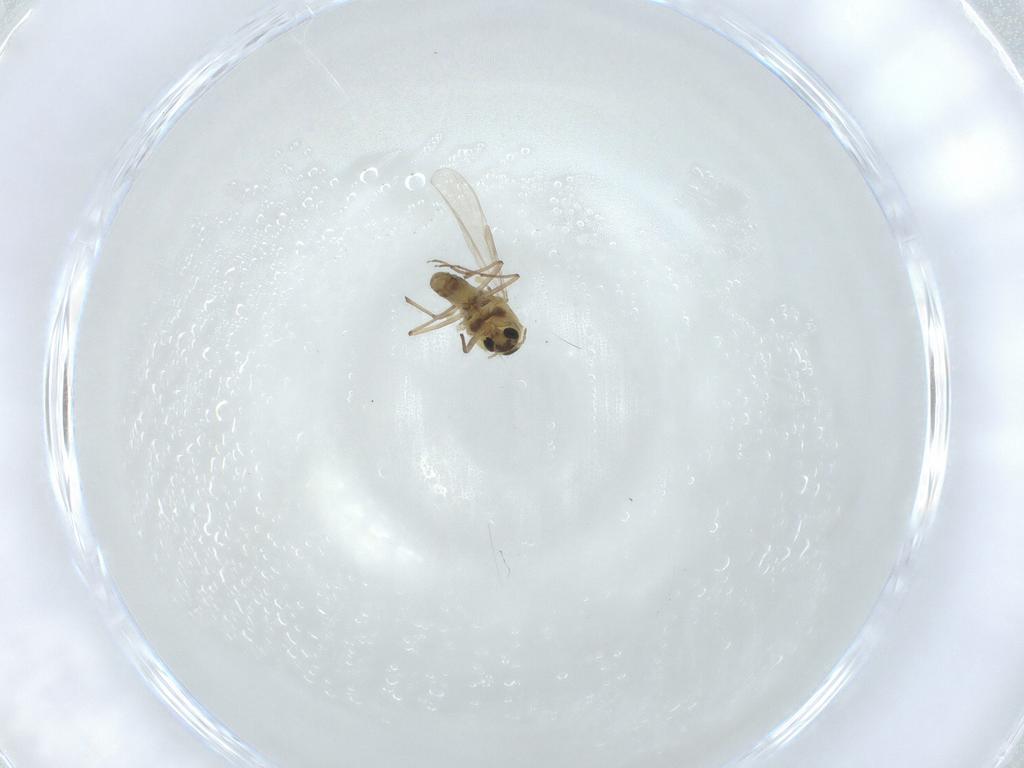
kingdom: Animalia
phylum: Arthropoda
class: Insecta
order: Diptera
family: Chironomidae
